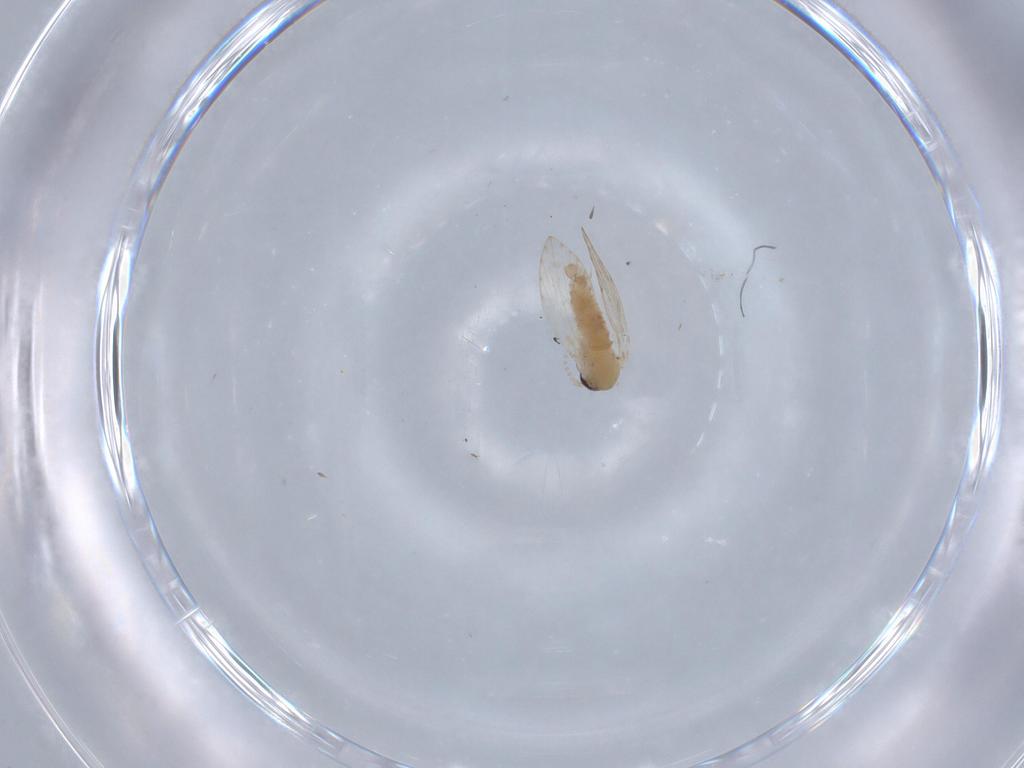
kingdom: Animalia
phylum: Arthropoda
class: Insecta
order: Diptera
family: Psychodidae
